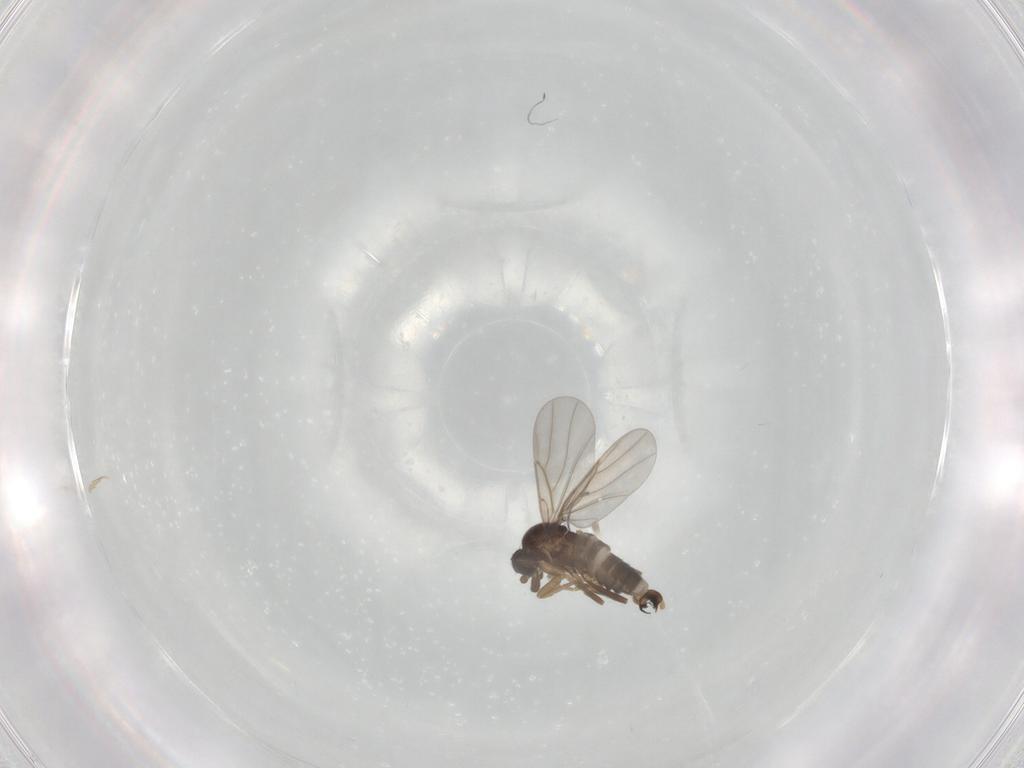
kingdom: Animalia
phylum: Arthropoda
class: Insecta
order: Diptera
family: Phoridae
